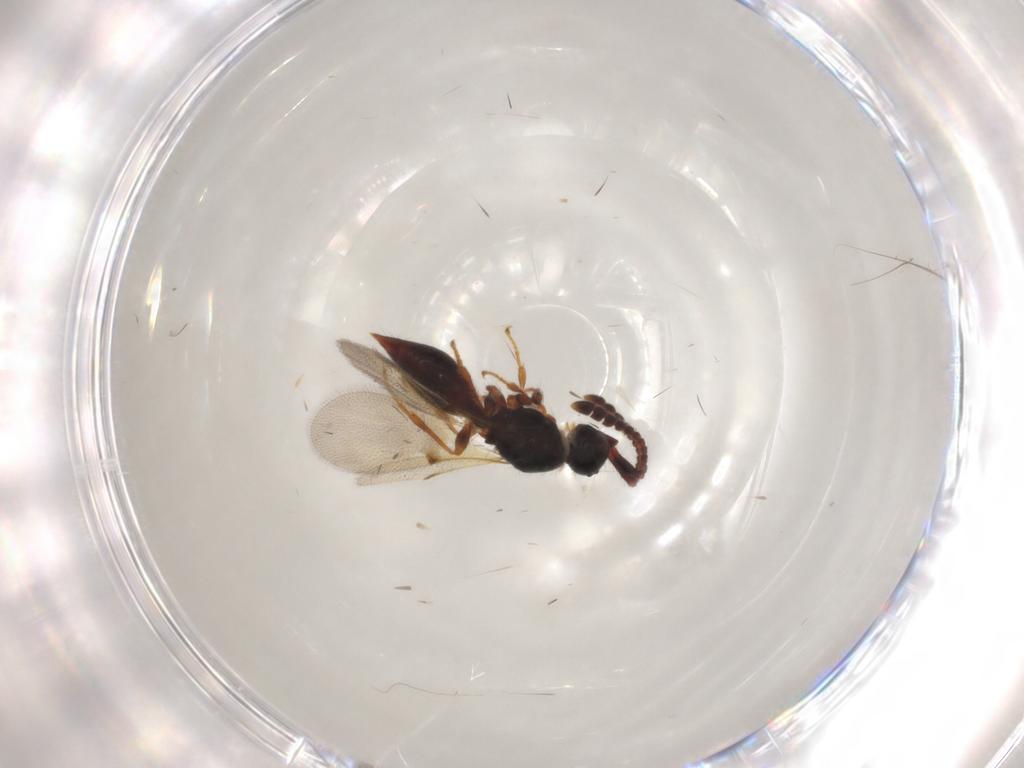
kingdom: Animalia
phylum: Arthropoda
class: Insecta
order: Hymenoptera
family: Diapriidae
